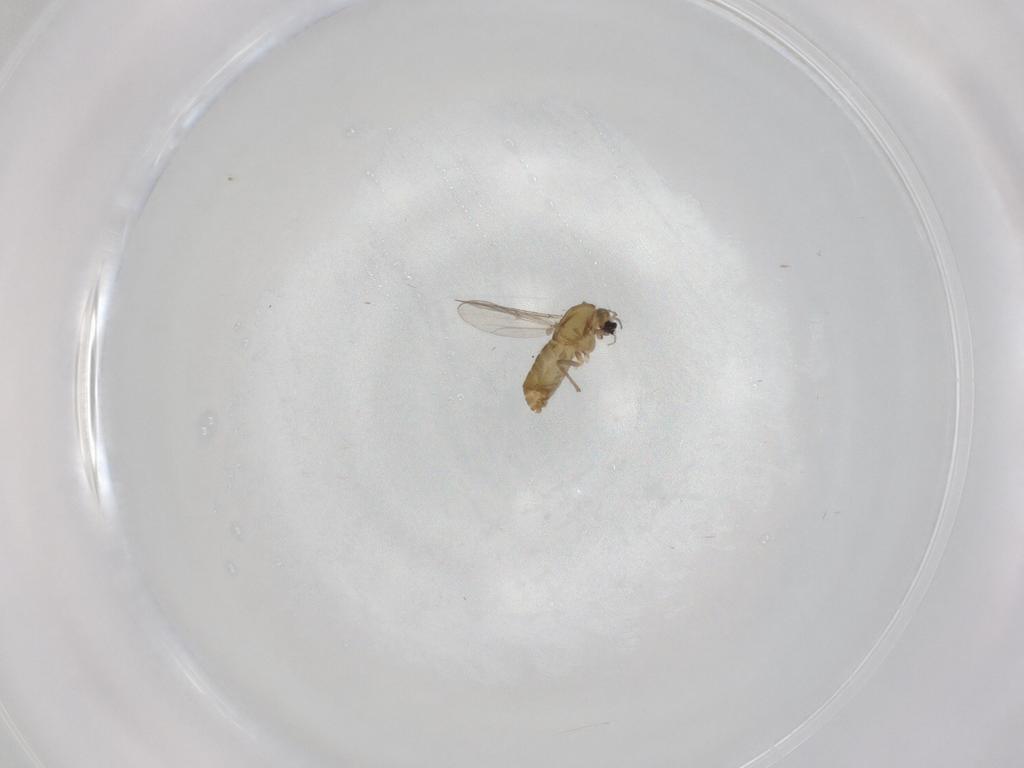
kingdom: Animalia
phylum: Arthropoda
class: Insecta
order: Diptera
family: Chironomidae
